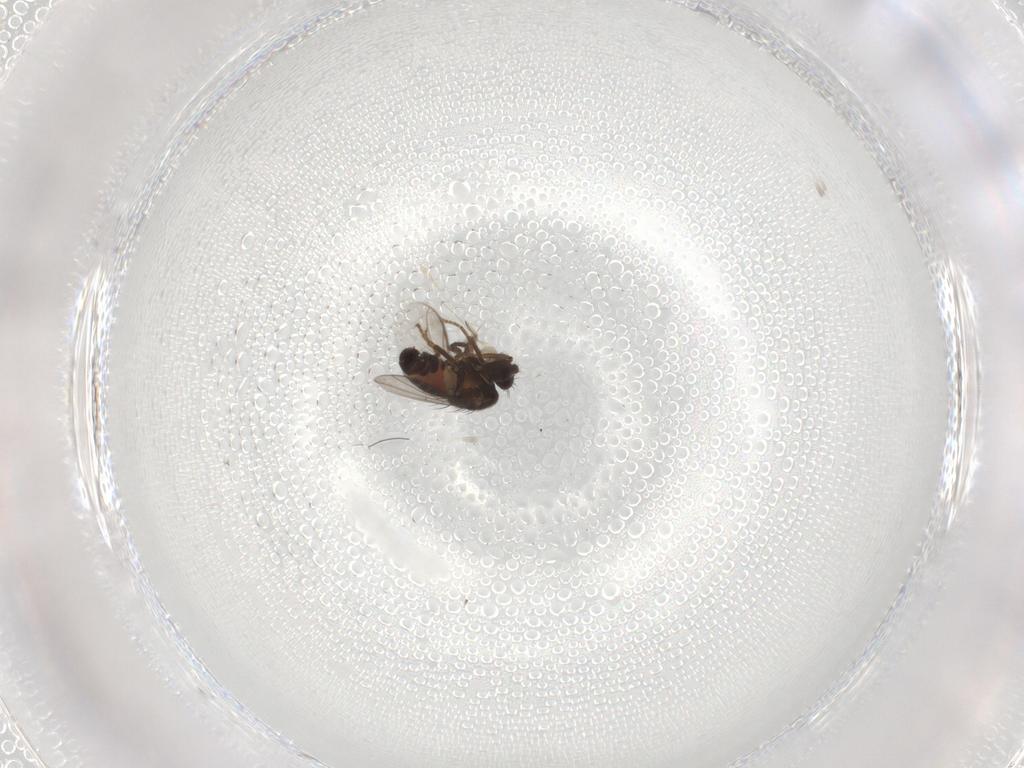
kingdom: Animalia
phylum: Arthropoda
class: Insecta
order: Diptera
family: Sphaeroceridae
